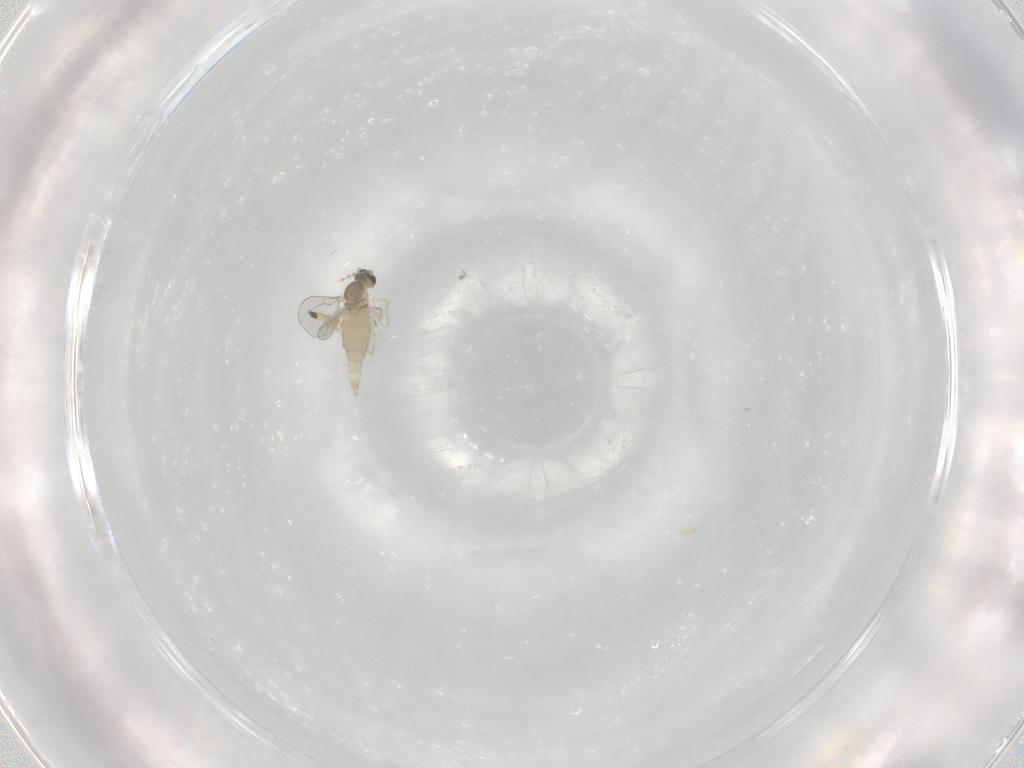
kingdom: Animalia
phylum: Arthropoda
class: Insecta
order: Diptera
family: Cecidomyiidae
